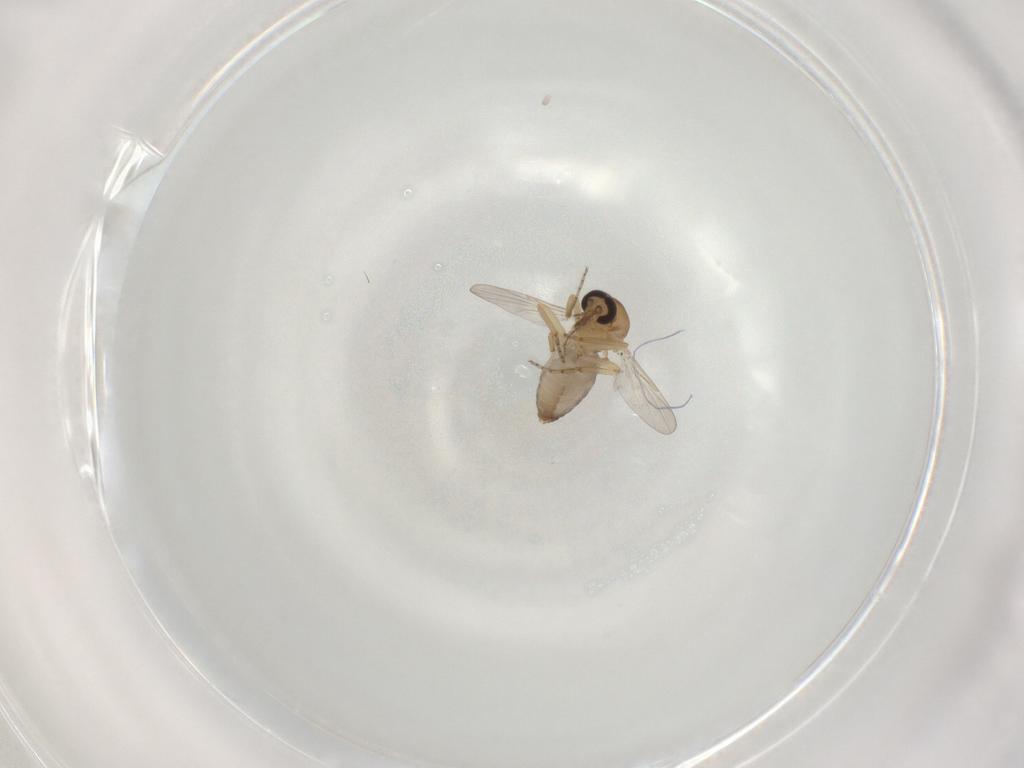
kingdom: Animalia
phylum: Arthropoda
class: Insecta
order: Diptera
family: Ceratopogonidae
